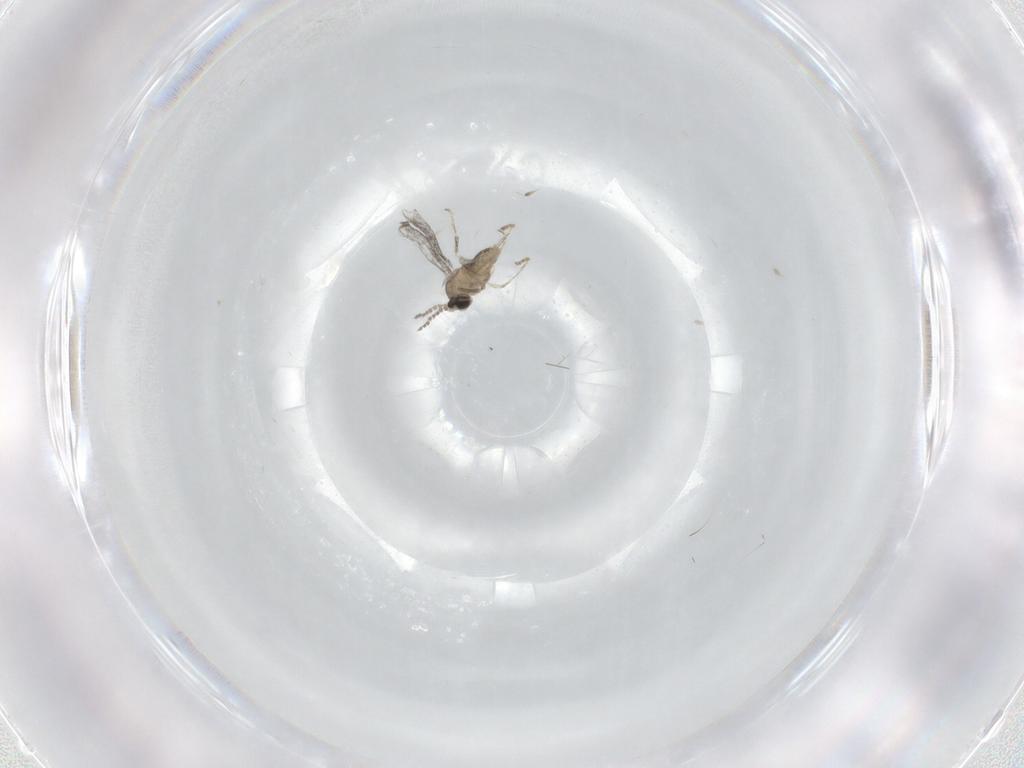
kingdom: Animalia
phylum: Arthropoda
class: Insecta
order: Diptera
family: Cecidomyiidae
